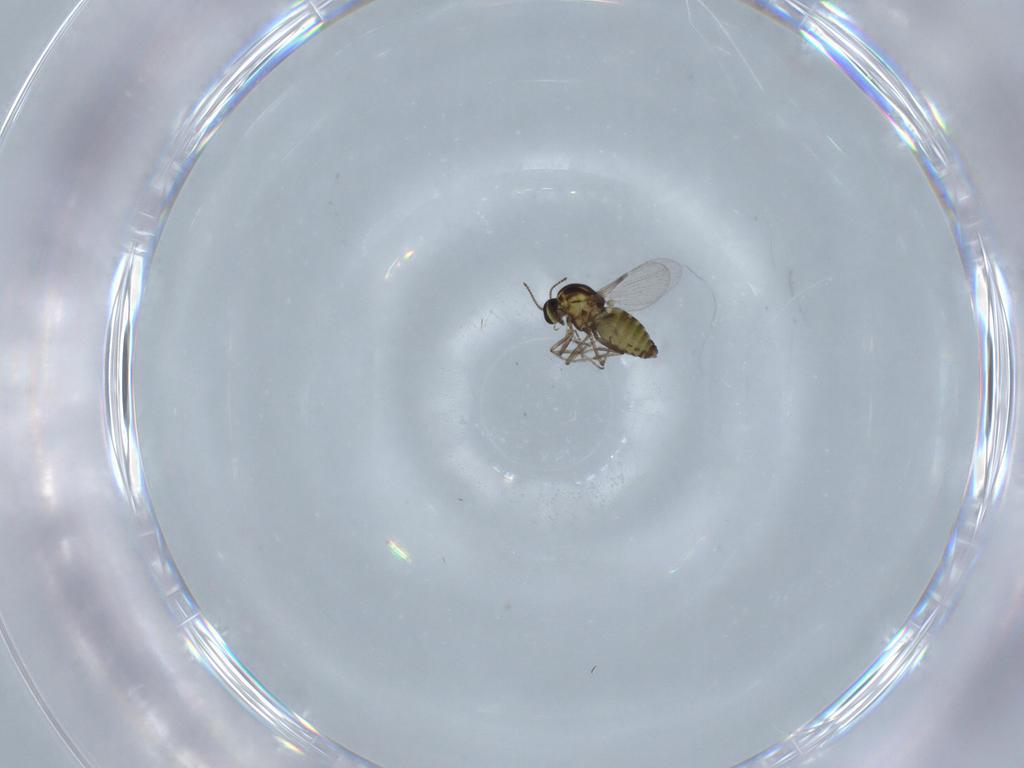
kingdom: Animalia
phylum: Arthropoda
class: Insecta
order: Diptera
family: Ceratopogonidae
